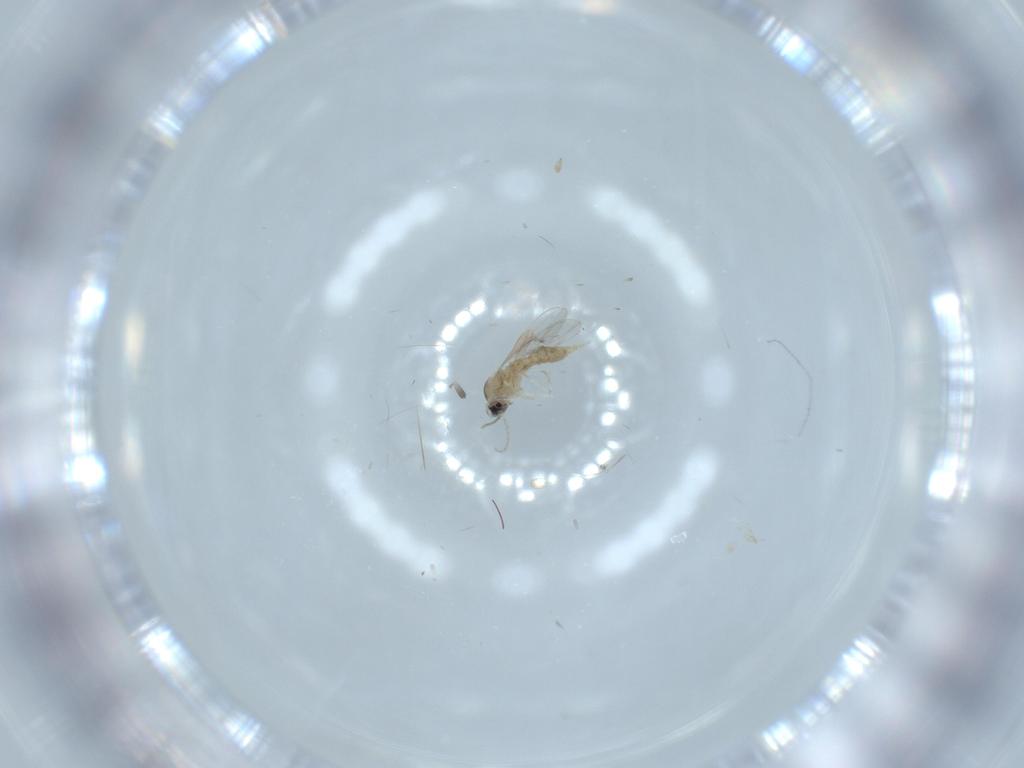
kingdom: Animalia
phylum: Arthropoda
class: Insecta
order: Diptera
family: Cecidomyiidae
